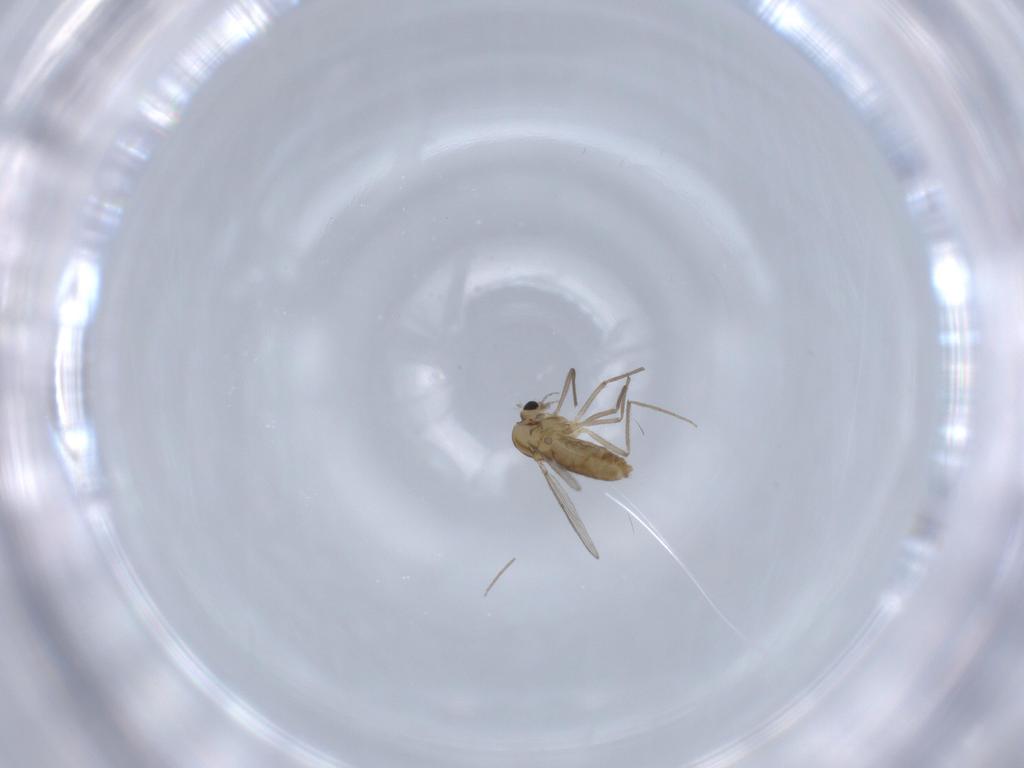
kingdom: Animalia
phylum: Arthropoda
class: Insecta
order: Diptera
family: Chironomidae
